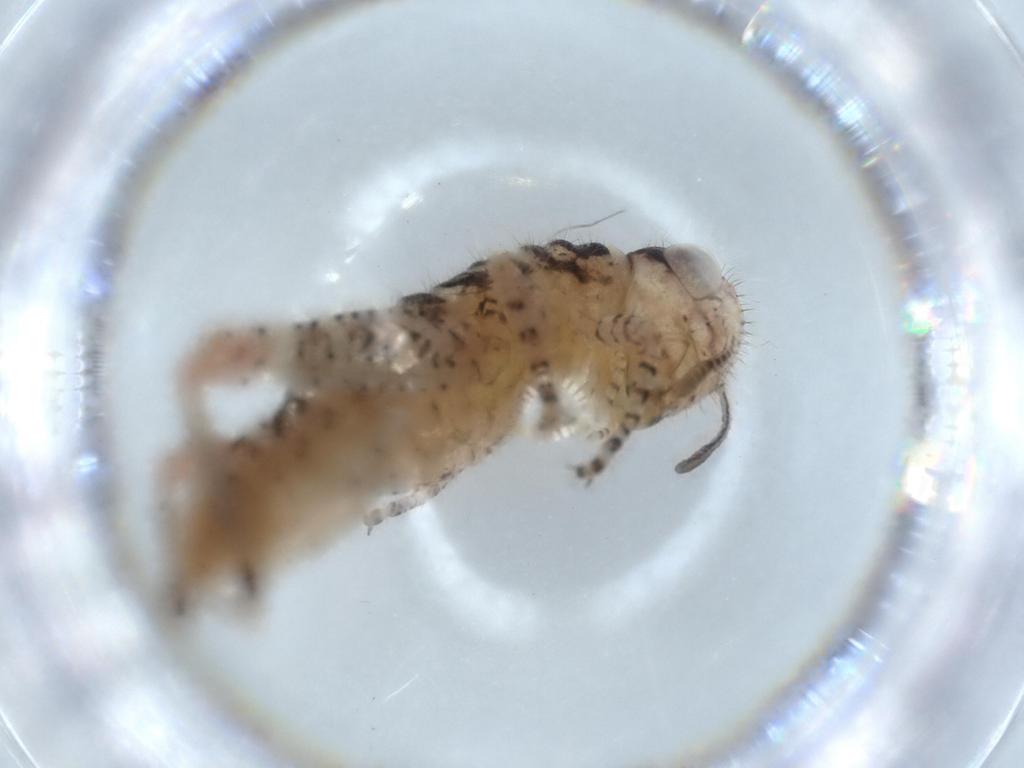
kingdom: Animalia
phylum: Arthropoda
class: Insecta
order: Orthoptera
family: Acrididae
